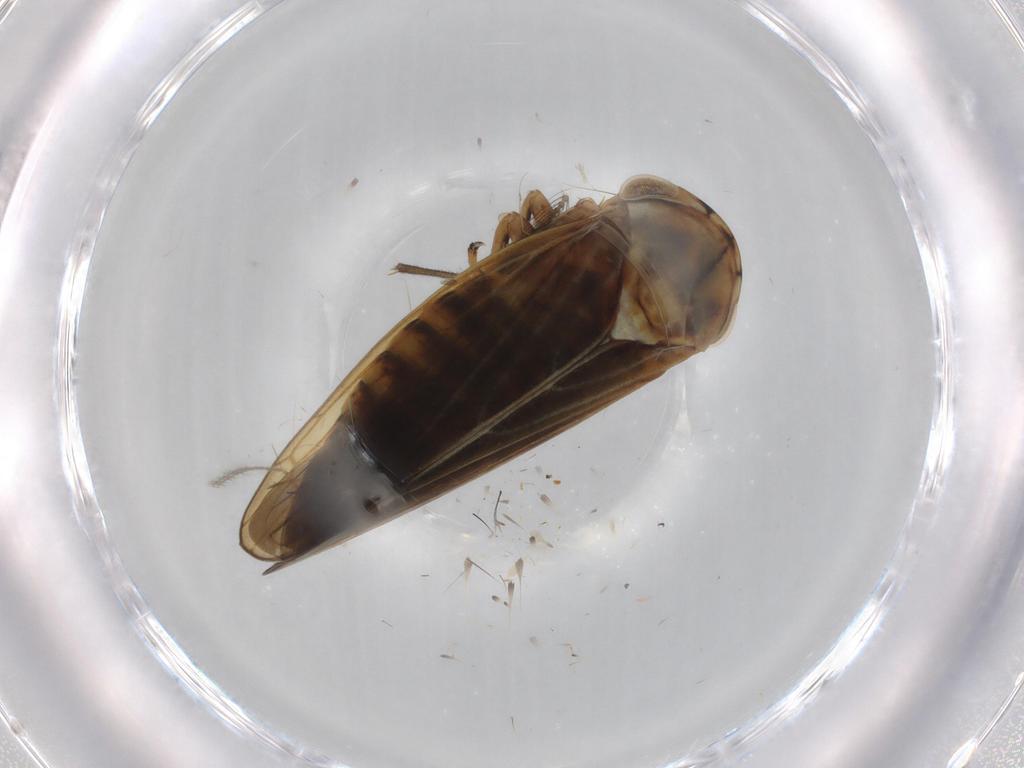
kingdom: Animalia
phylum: Arthropoda
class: Insecta
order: Hemiptera
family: Cicadellidae
